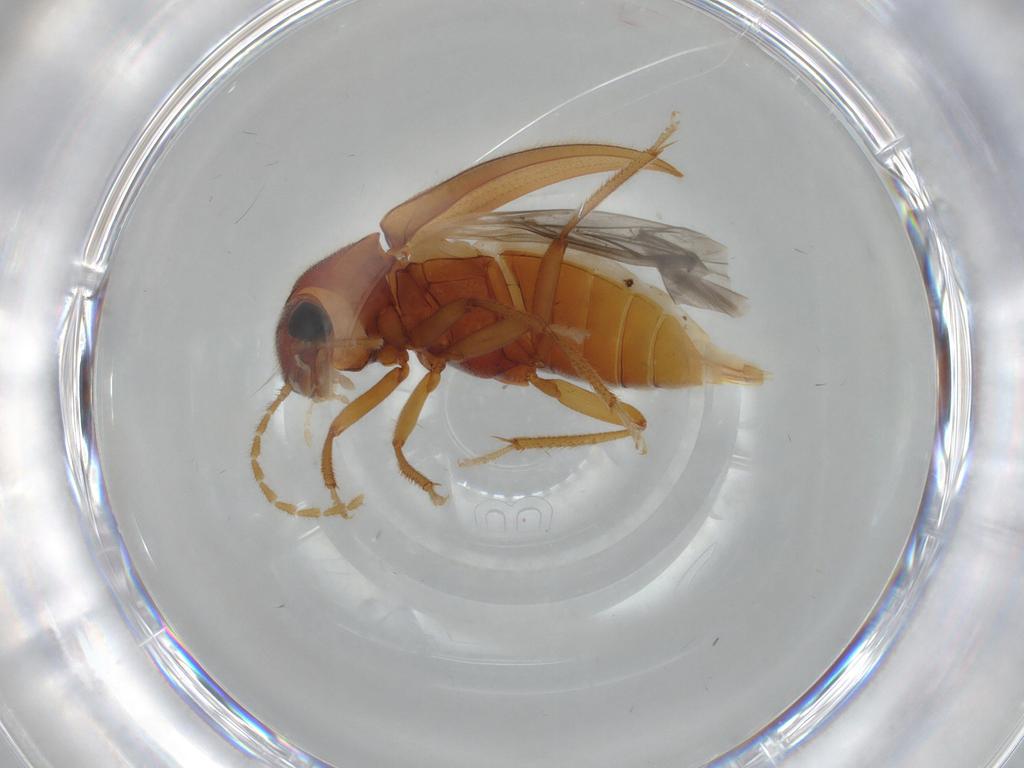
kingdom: Animalia
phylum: Arthropoda
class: Insecta
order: Coleoptera
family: Ptilodactylidae
